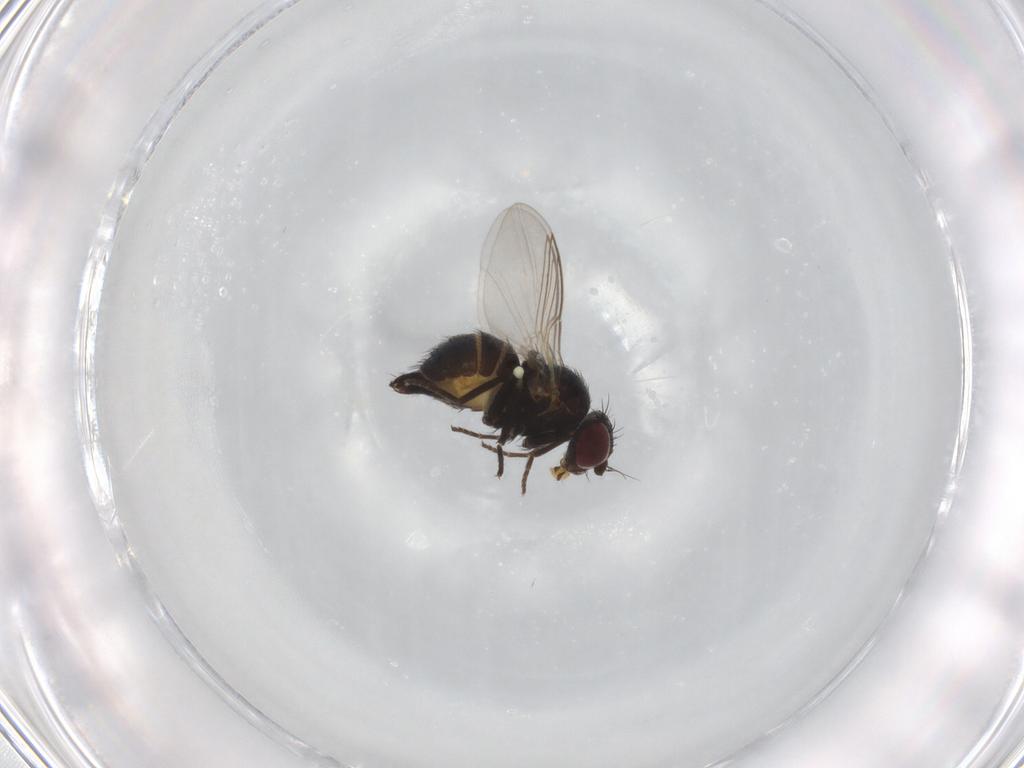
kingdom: Animalia
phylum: Arthropoda
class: Insecta
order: Diptera
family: Agromyzidae
